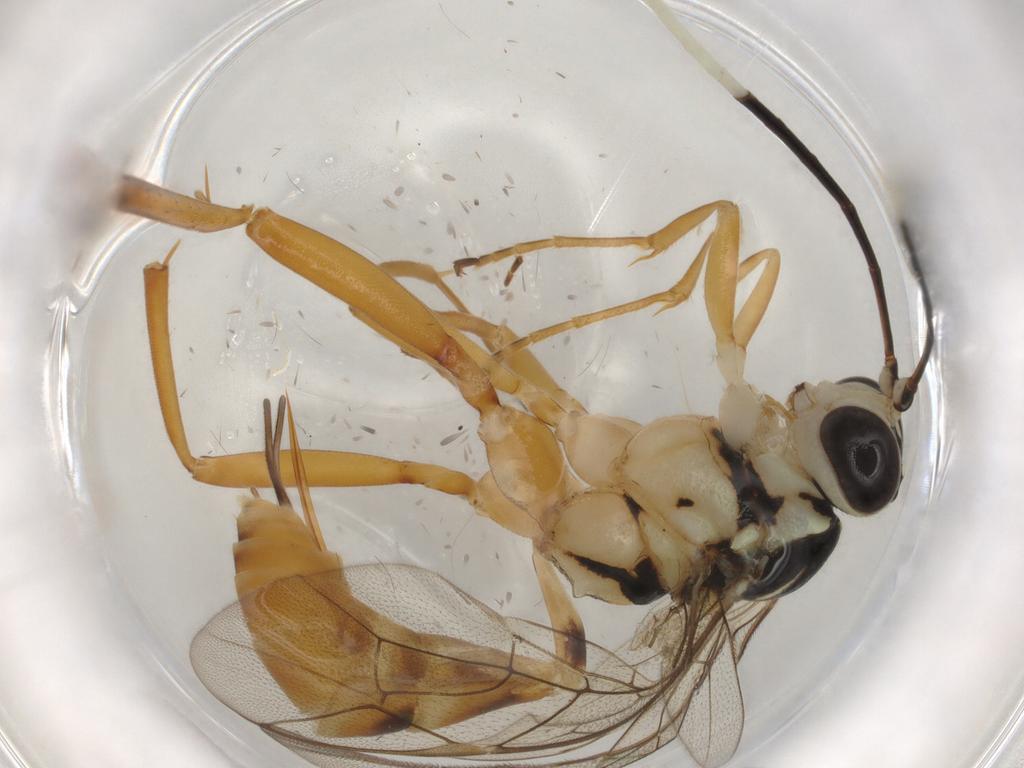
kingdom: Animalia
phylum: Arthropoda
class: Insecta
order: Hymenoptera
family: Ichneumonidae
